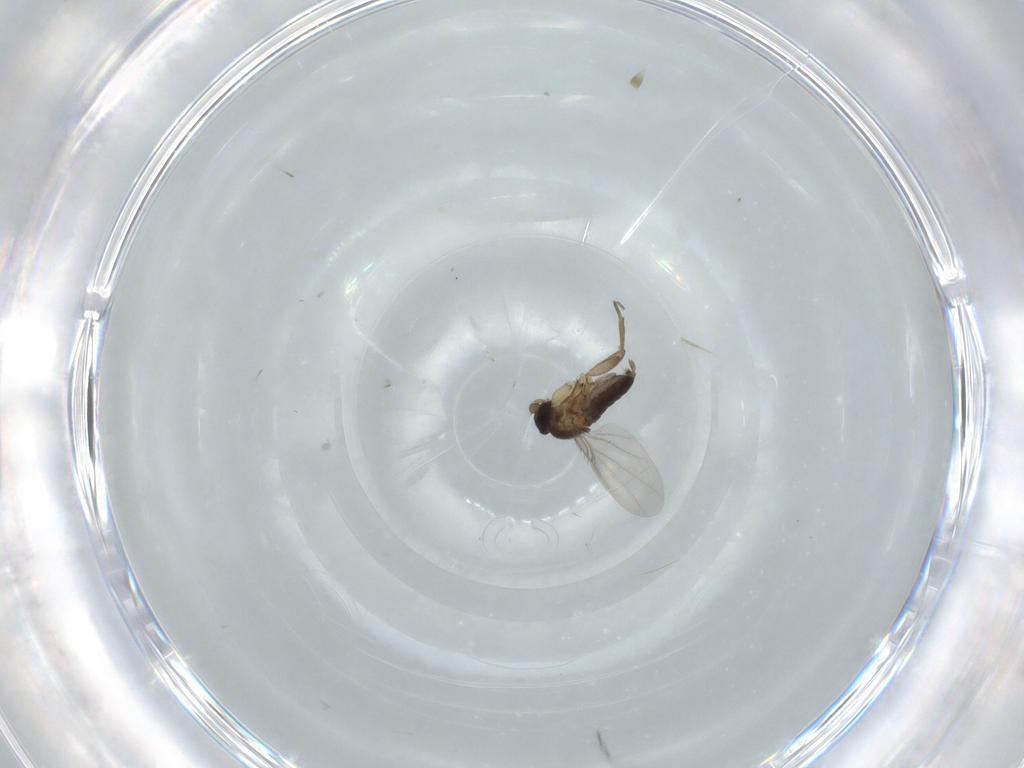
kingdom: Animalia
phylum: Arthropoda
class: Insecta
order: Diptera
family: Phoridae
